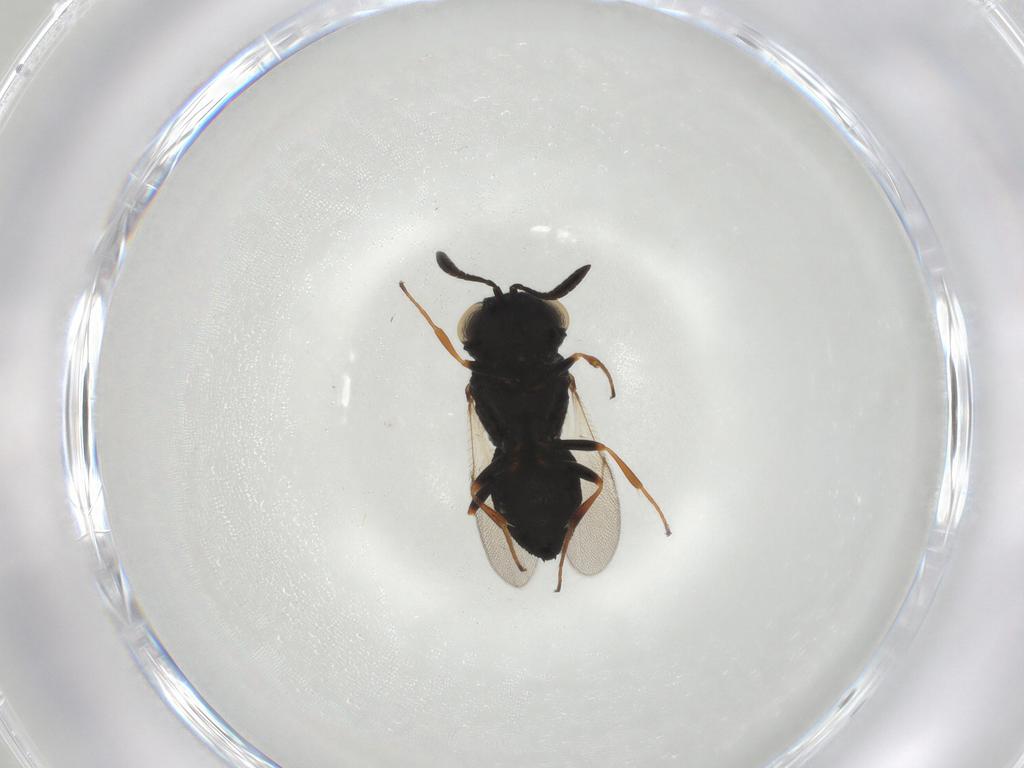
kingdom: Animalia
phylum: Arthropoda
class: Insecta
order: Hymenoptera
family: Scelionidae
